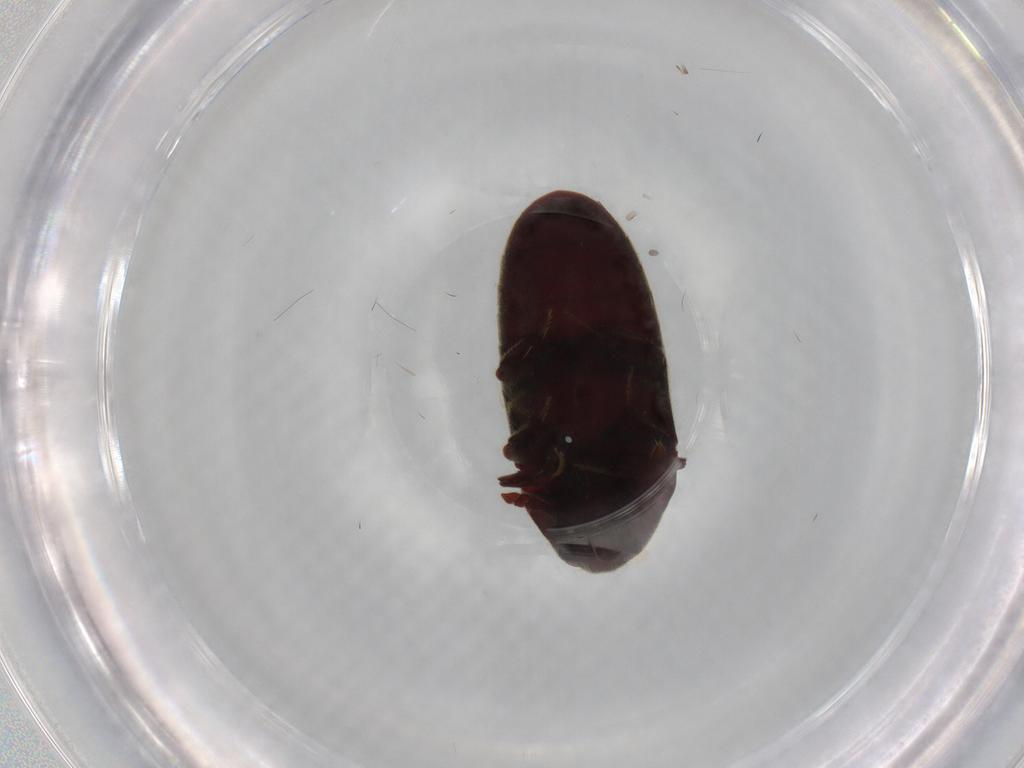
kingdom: Animalia
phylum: Arthropoda
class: Insecta
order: Coleoptera
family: Throscidae
